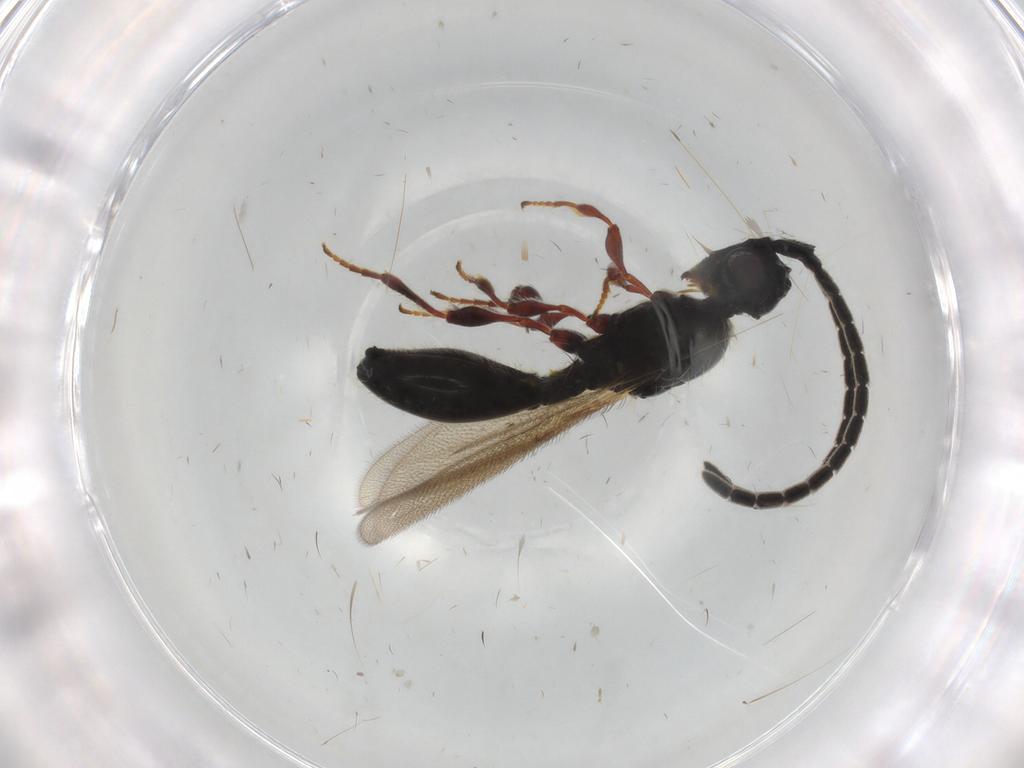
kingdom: Animalia
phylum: Arthropoda
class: Insecta
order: Hymenoptera
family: Diapriidae
